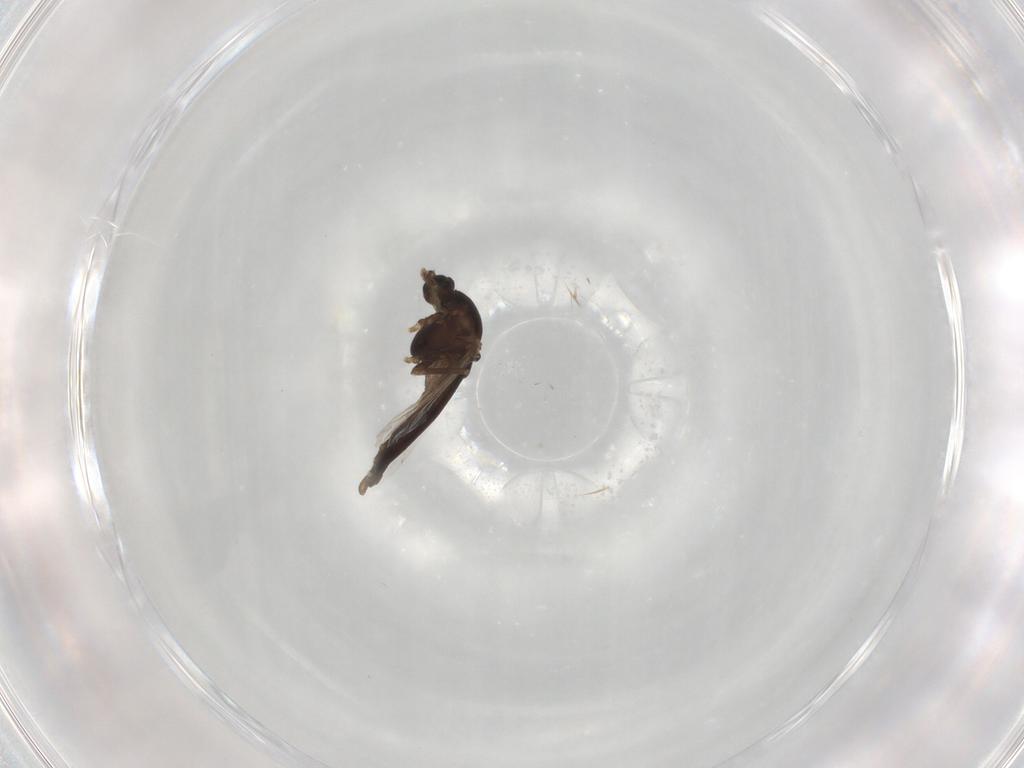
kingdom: Animalia
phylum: Arthropoda
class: Insecta
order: Diptera
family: Chironomidae
